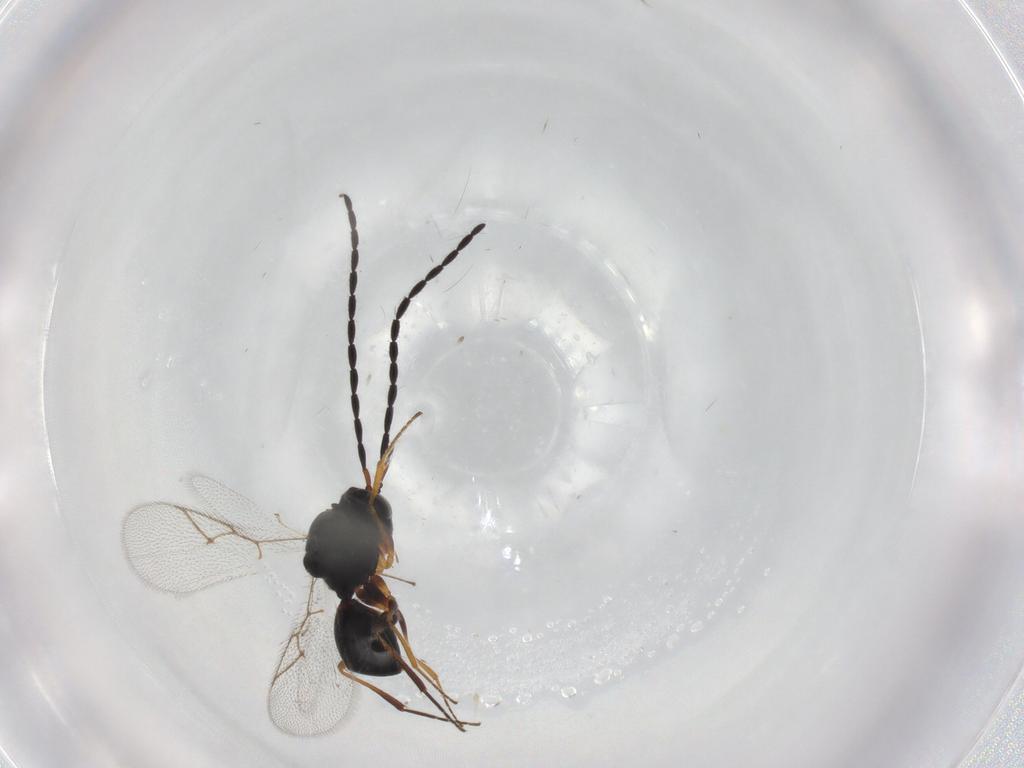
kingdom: Animalia
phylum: Arthropoda
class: Insecta
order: Hymenoptera
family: Figitidae
